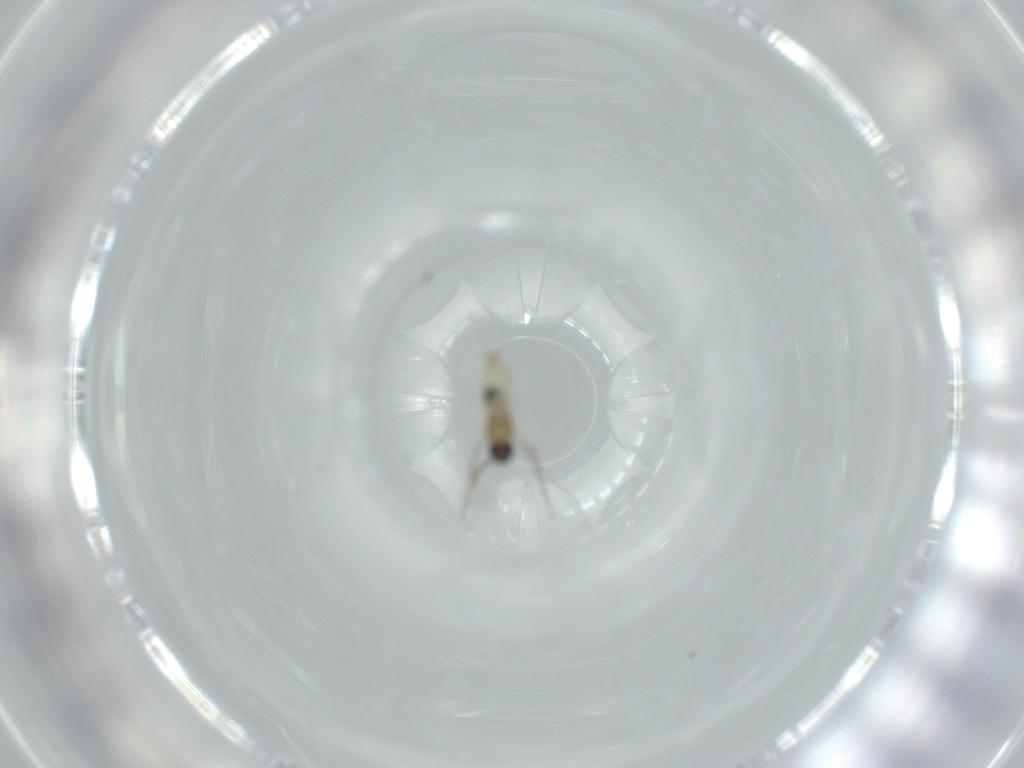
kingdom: Animalia
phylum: Arthropoda
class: Insecta
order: Diptera
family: Cecidomyiidae
